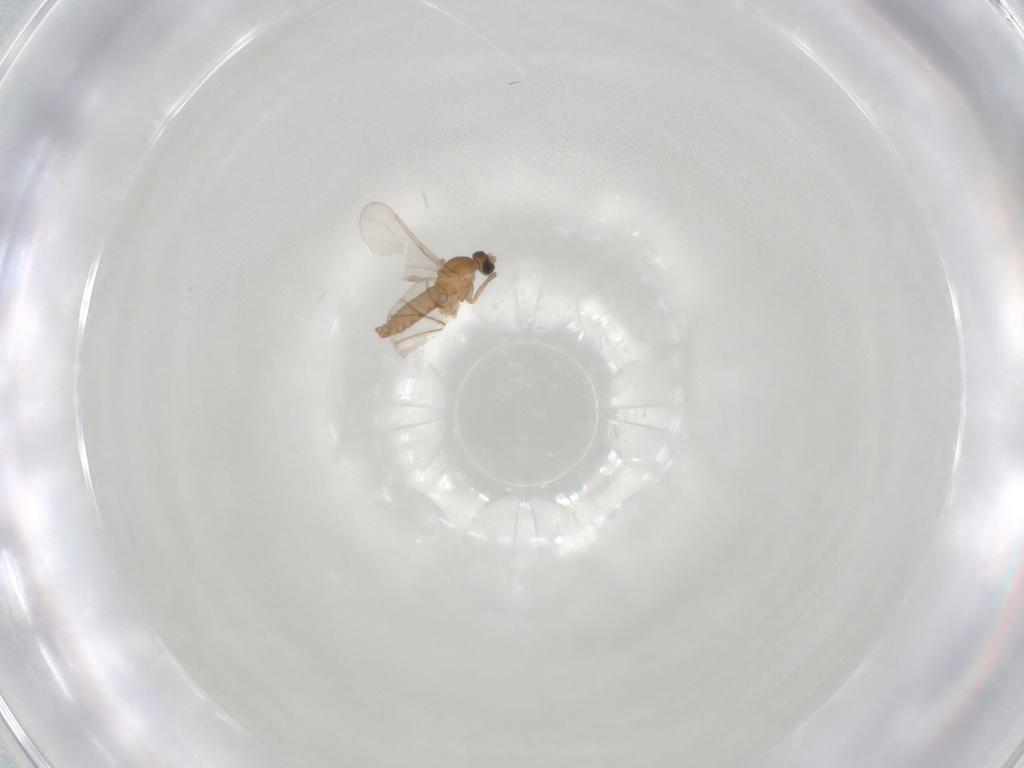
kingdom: Animalia
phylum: Arthropoda
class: Insecta
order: Diptera
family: Cecidomyiidae
